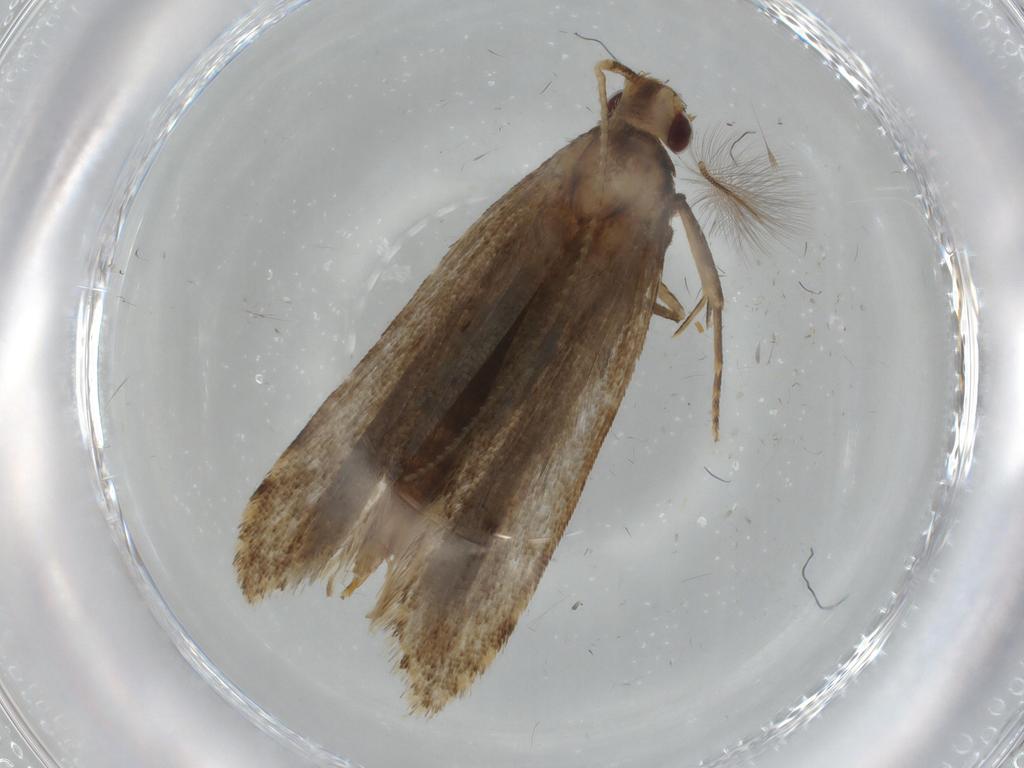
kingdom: Animalia
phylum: Arthropoda
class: Insecta
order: Lepidoptera
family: Gelechiidae
